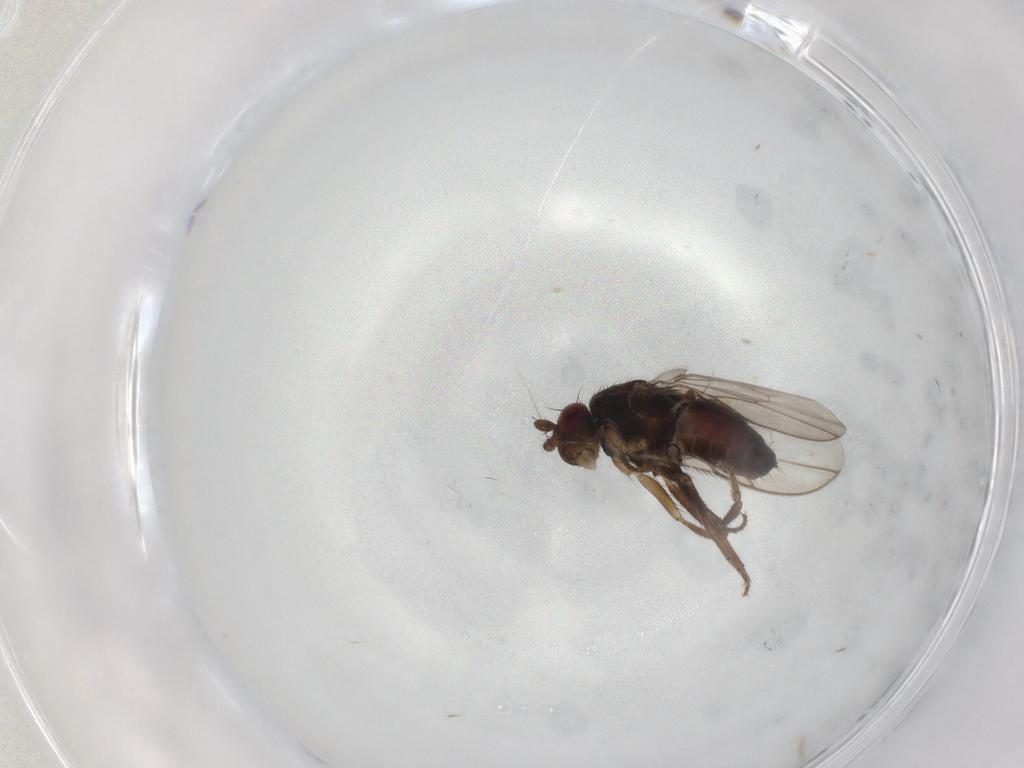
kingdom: Animalia
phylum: Arthropoda
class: Insecta
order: Diptera
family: Sphaeroceridae
